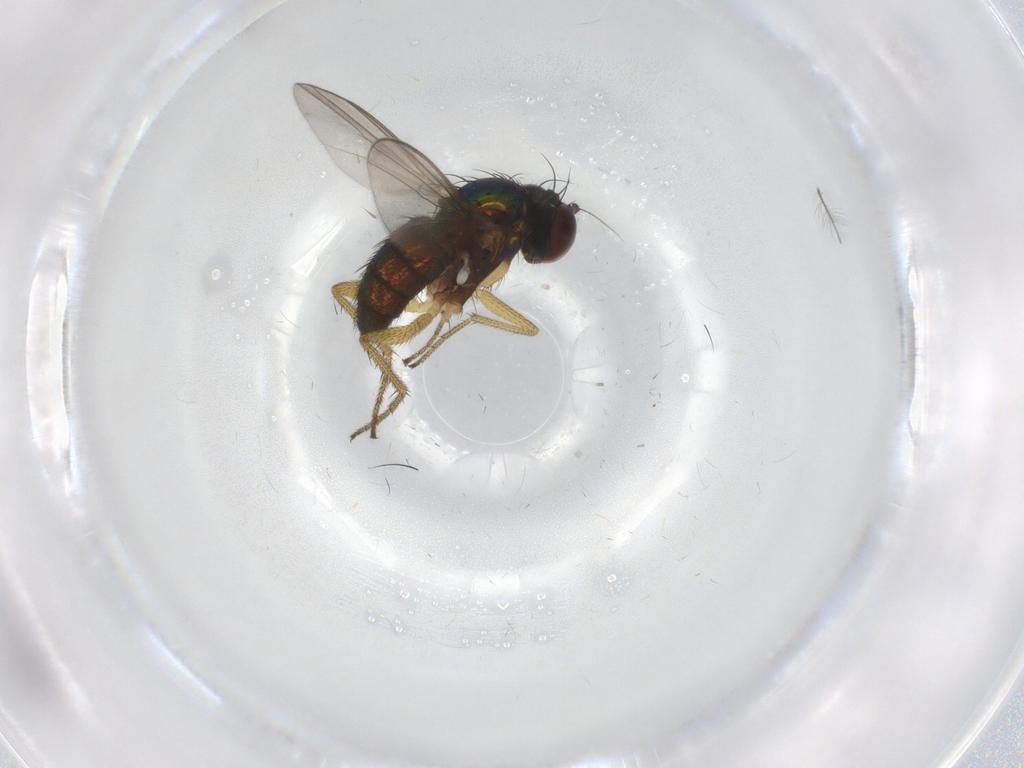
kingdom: Animalia
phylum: Arthropoda
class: Insecta
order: Diptera
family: Chironomidae
